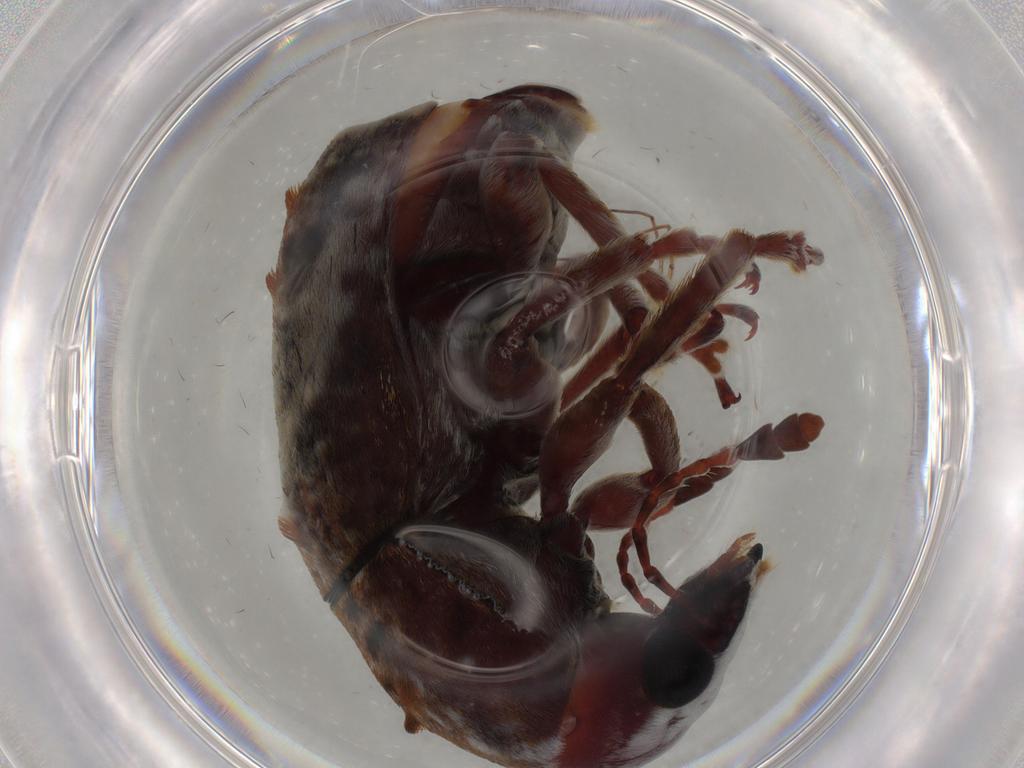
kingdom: Animalia
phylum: Arthropoda
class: Insecta
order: Coleoptera
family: Anthribidae
